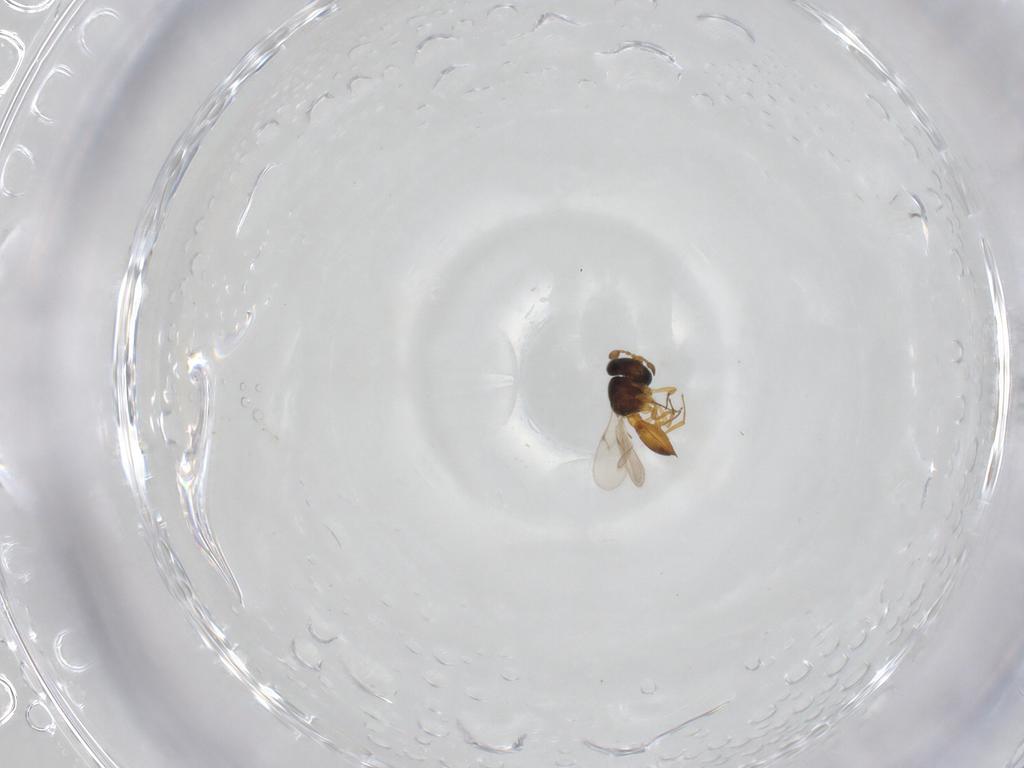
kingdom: Animalia
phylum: Arthropoda
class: Insecta
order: Hymenoptera
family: Scelionidae
